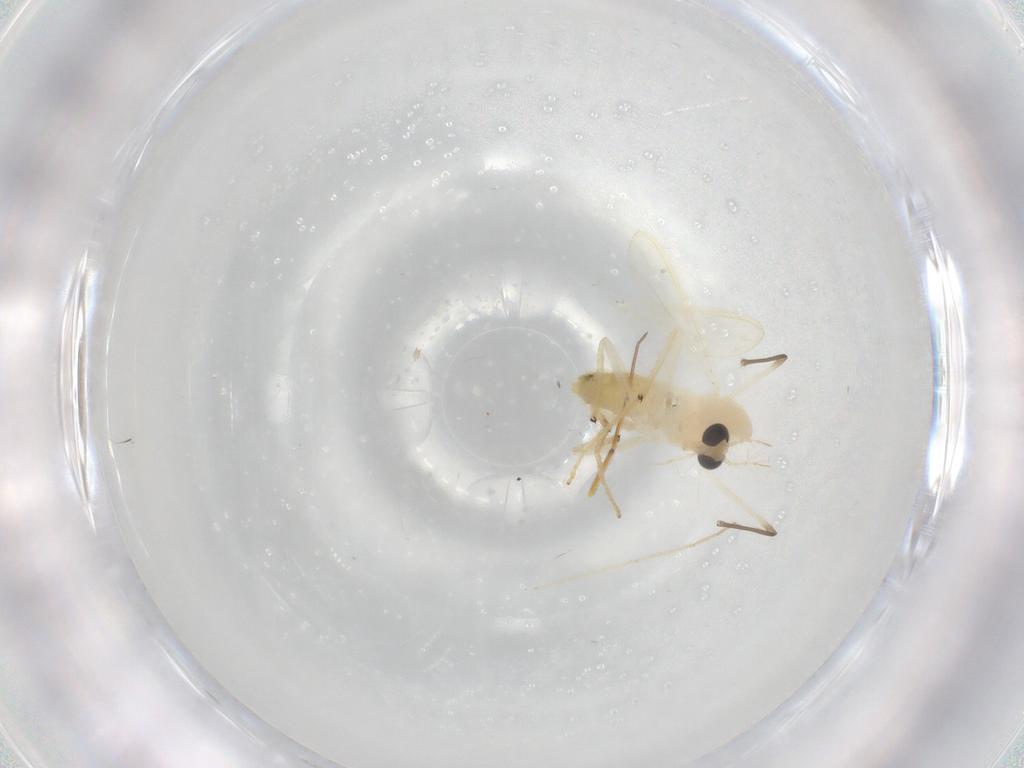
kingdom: Animalia
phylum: Arthropoda
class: Insecta
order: Diptera
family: Chironomidae
